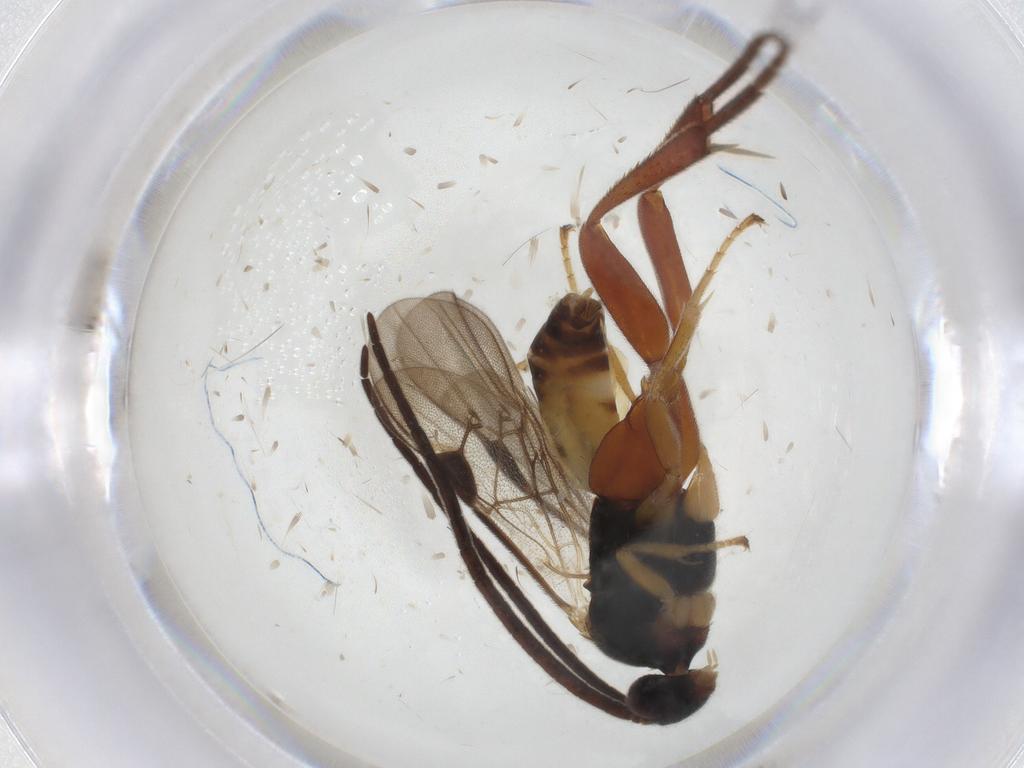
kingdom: Animalia
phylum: Arthropoda
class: Insecta
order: Hymenoptera
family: Braconidae
